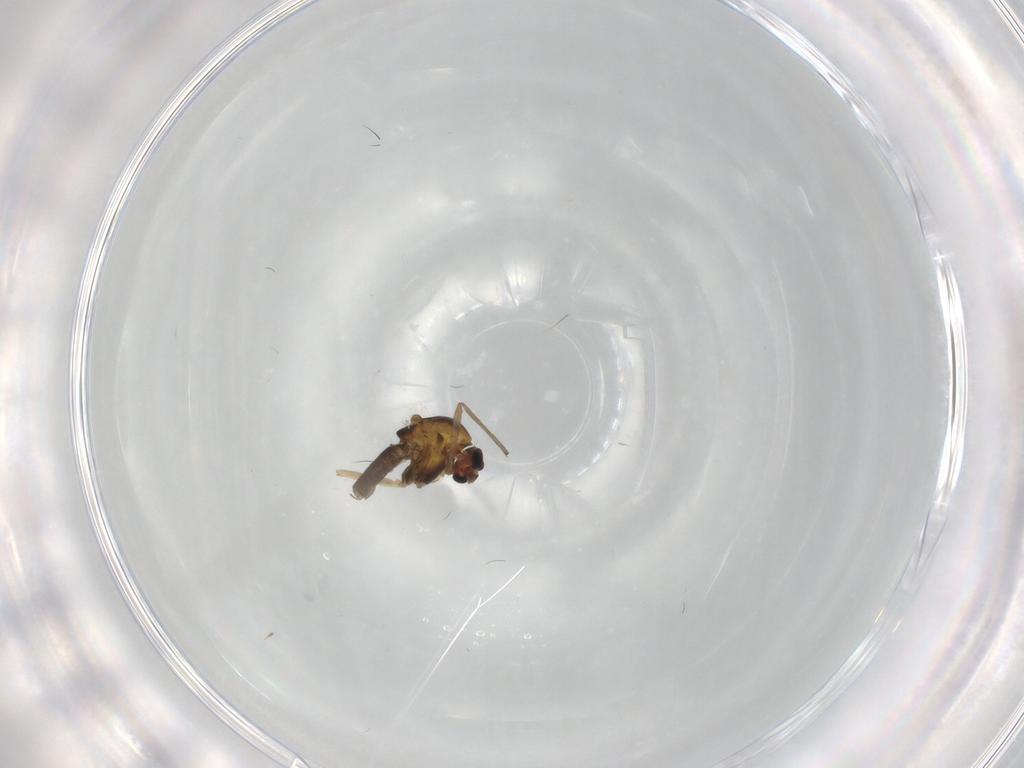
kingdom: Animalia
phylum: Arthropoda
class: Insecta
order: Diptera
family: Chironomidae
